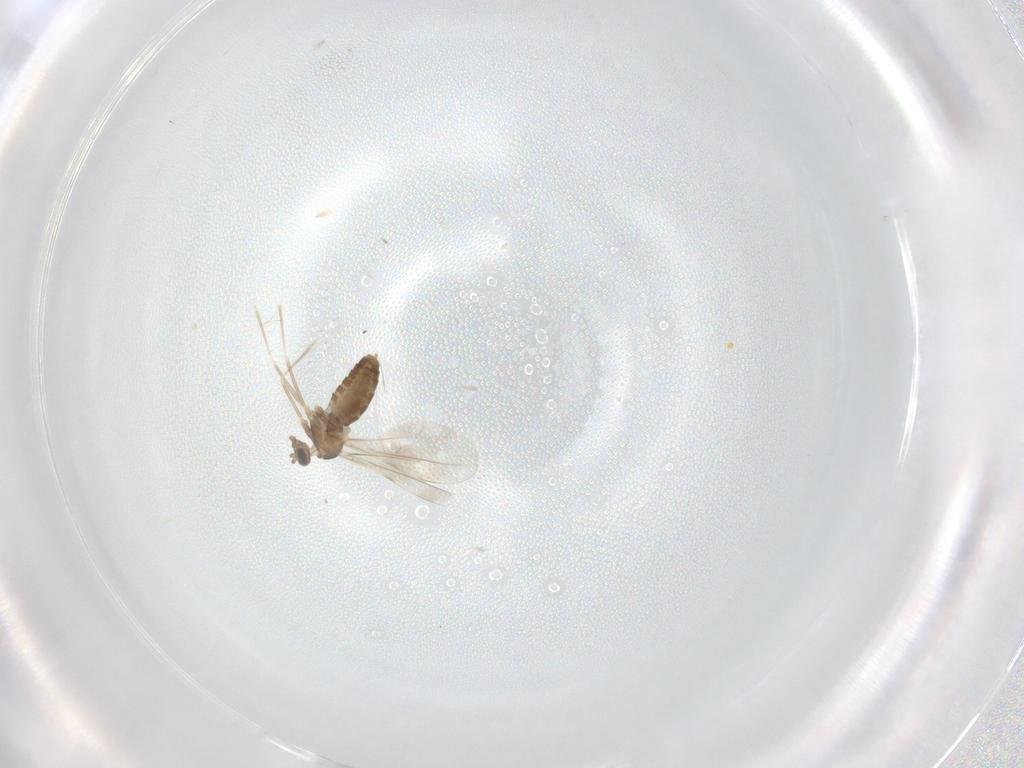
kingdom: Animalia
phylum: Arthropoda
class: Insecta
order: Diptera
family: Cecidomyiidae
